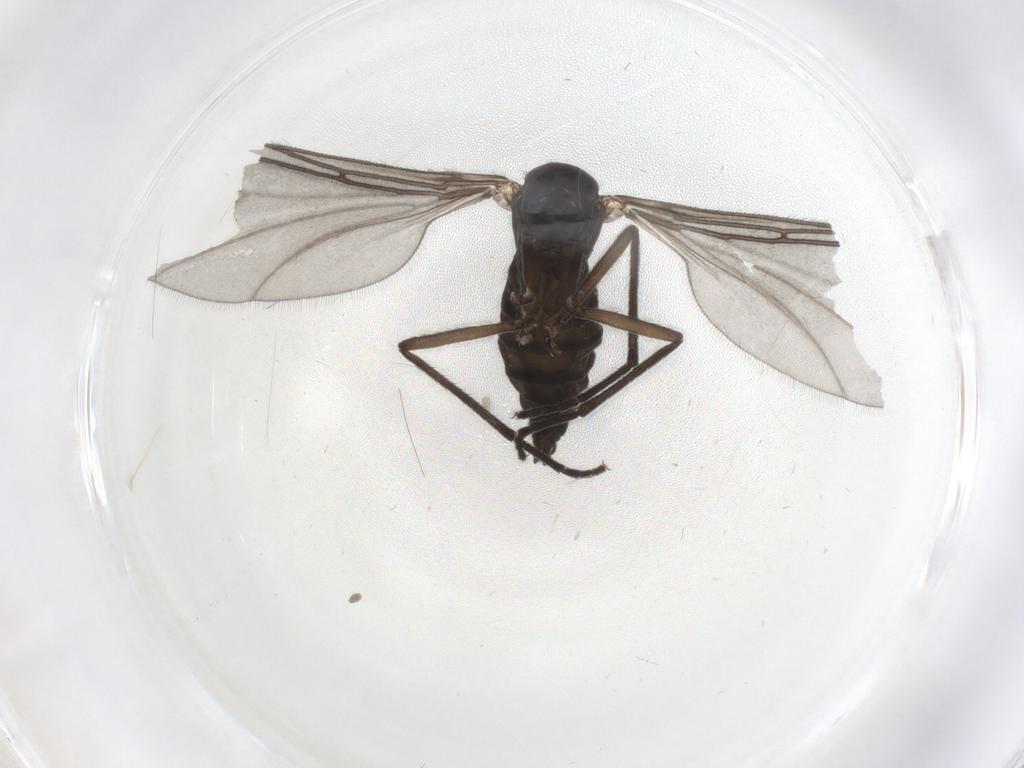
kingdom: Animalia
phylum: Arthropoda
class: Insecta
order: Diptera
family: Sciaridae
